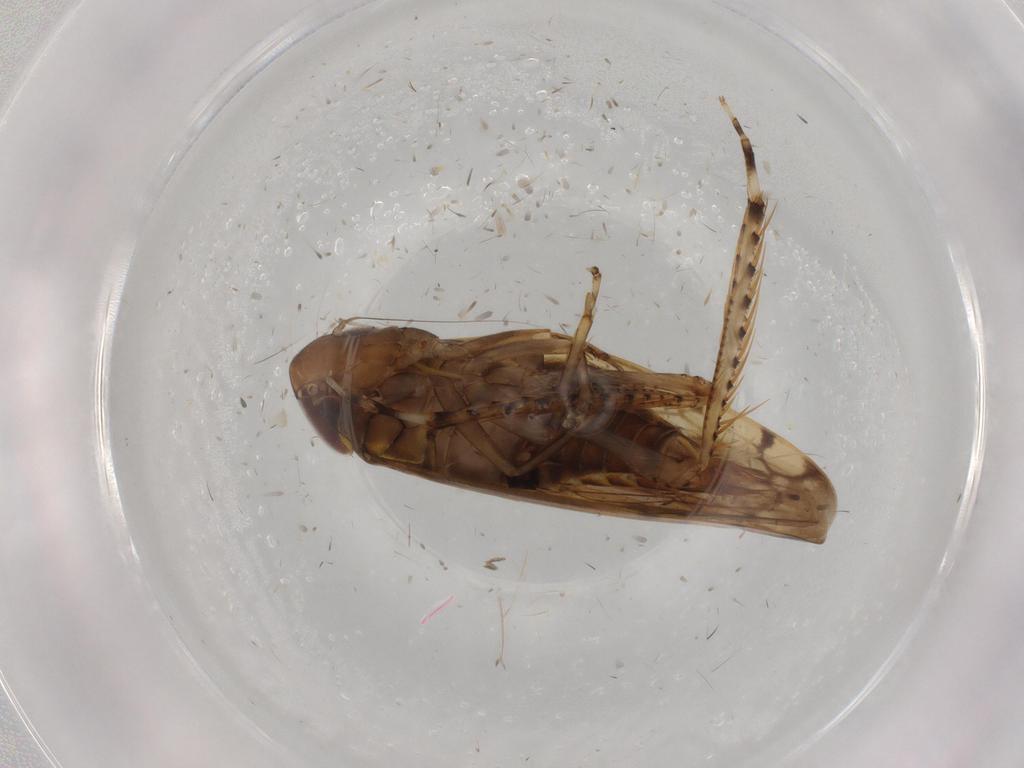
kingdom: Animalia
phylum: Arthropoda
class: Insecta
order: Hemiptera
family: Cicadellidae
